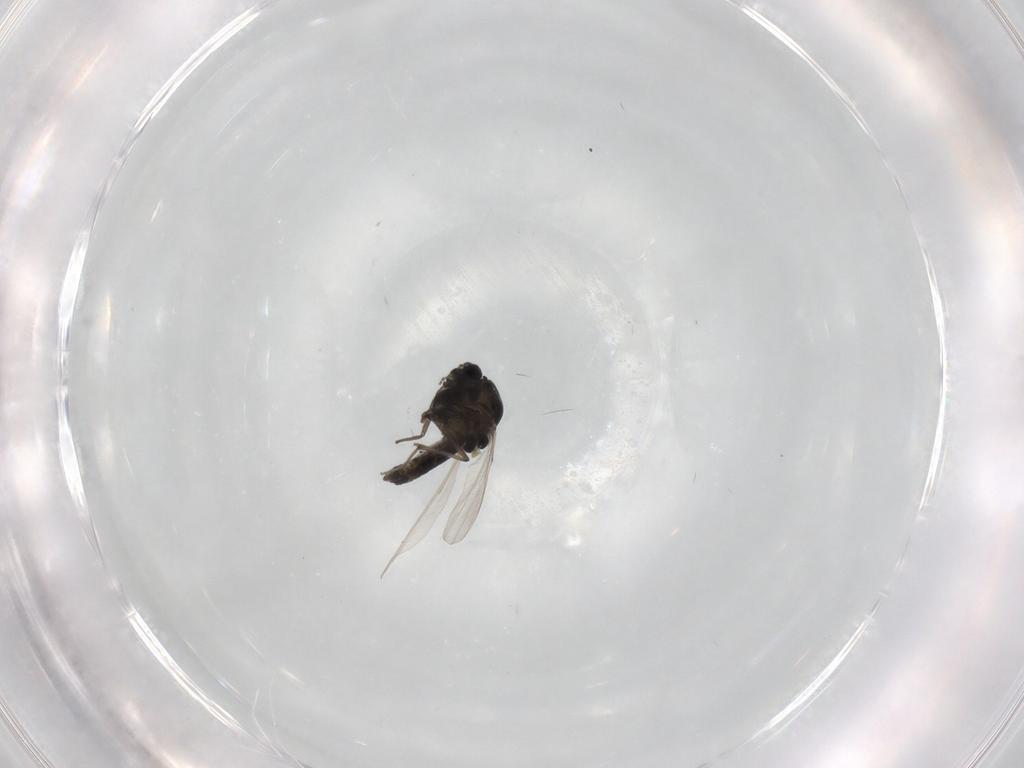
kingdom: Animalia
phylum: Arthropoda
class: Insecta
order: Diptera
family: Chironomidae
